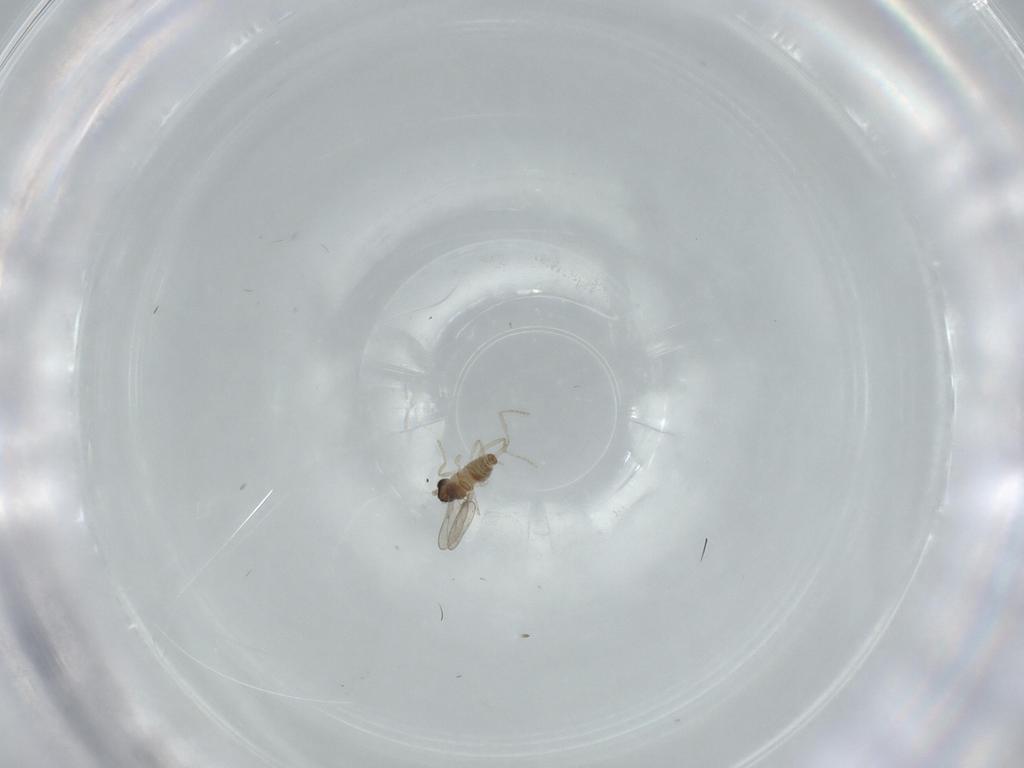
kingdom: Animalia
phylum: Arthropoda
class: Insecta
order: Diptera
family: Cecidomyiidae
